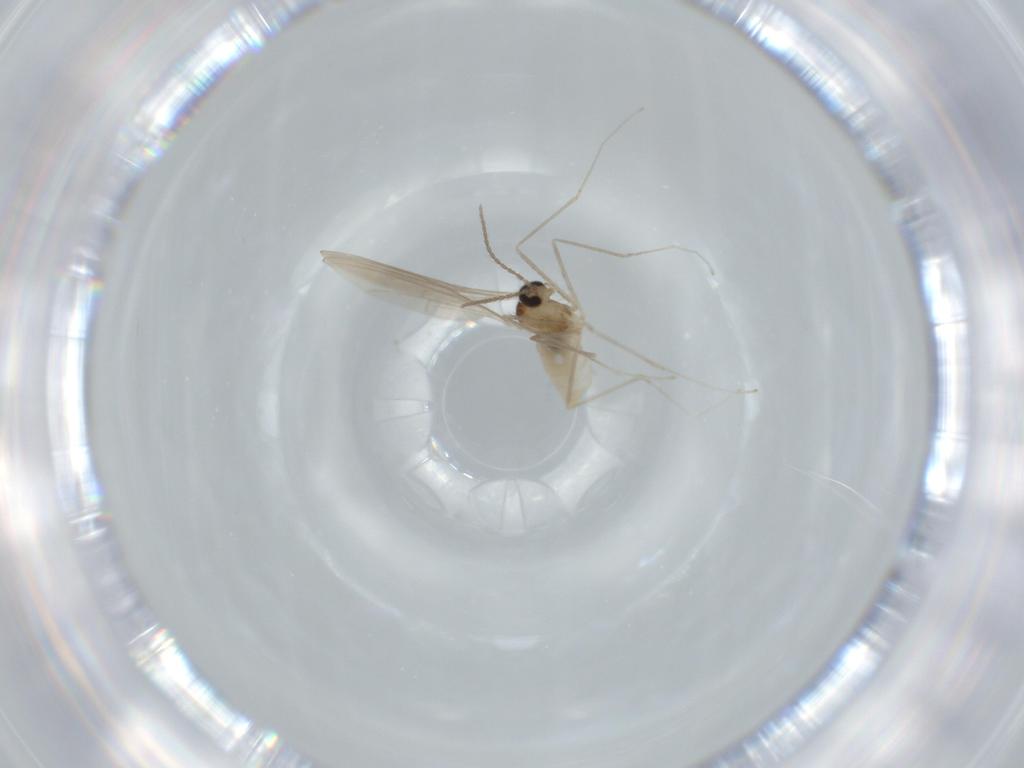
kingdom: Animalia
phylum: Arthropoda
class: Insecta
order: Diptera
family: Cecidomyiidae
